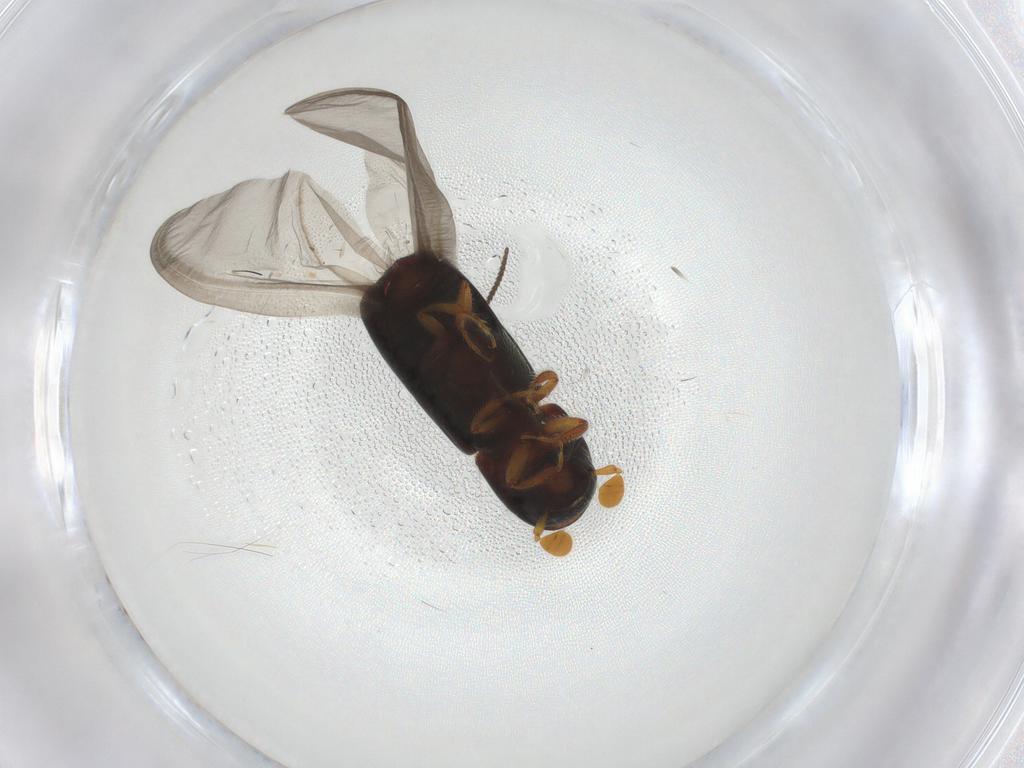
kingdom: Animalia
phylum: Arthropoda
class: Insecta
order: Coleoptera
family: Curculionidae
